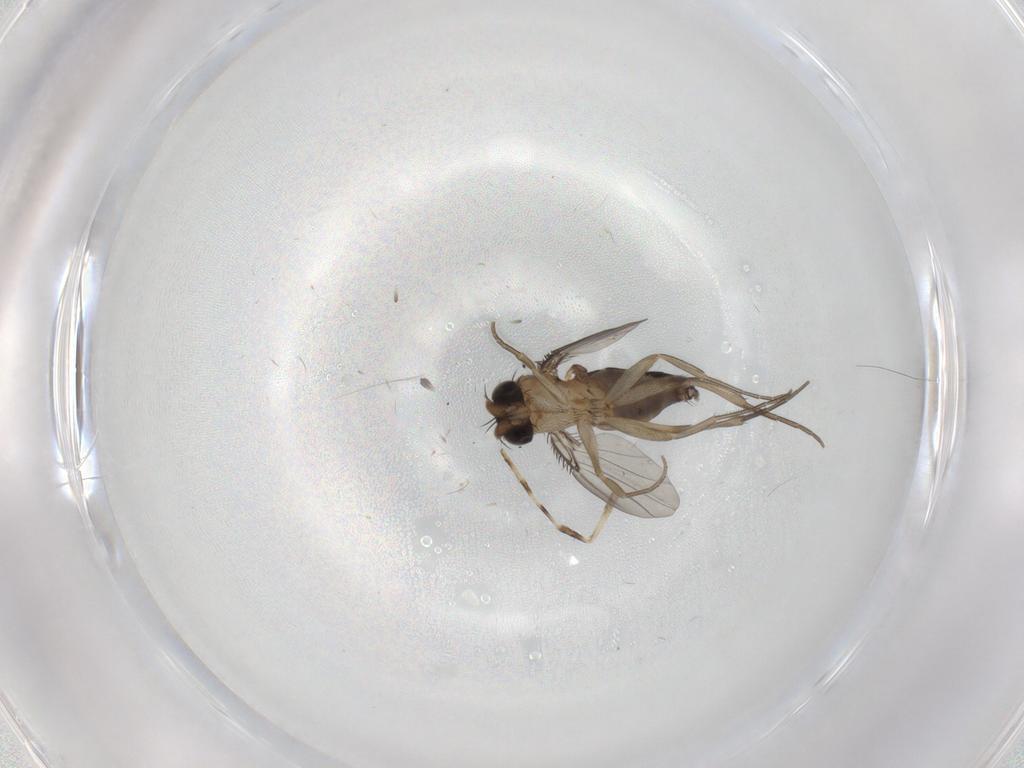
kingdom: Animalia
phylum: Arthropoda
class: Insecta
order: Diptera
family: Phoridae
